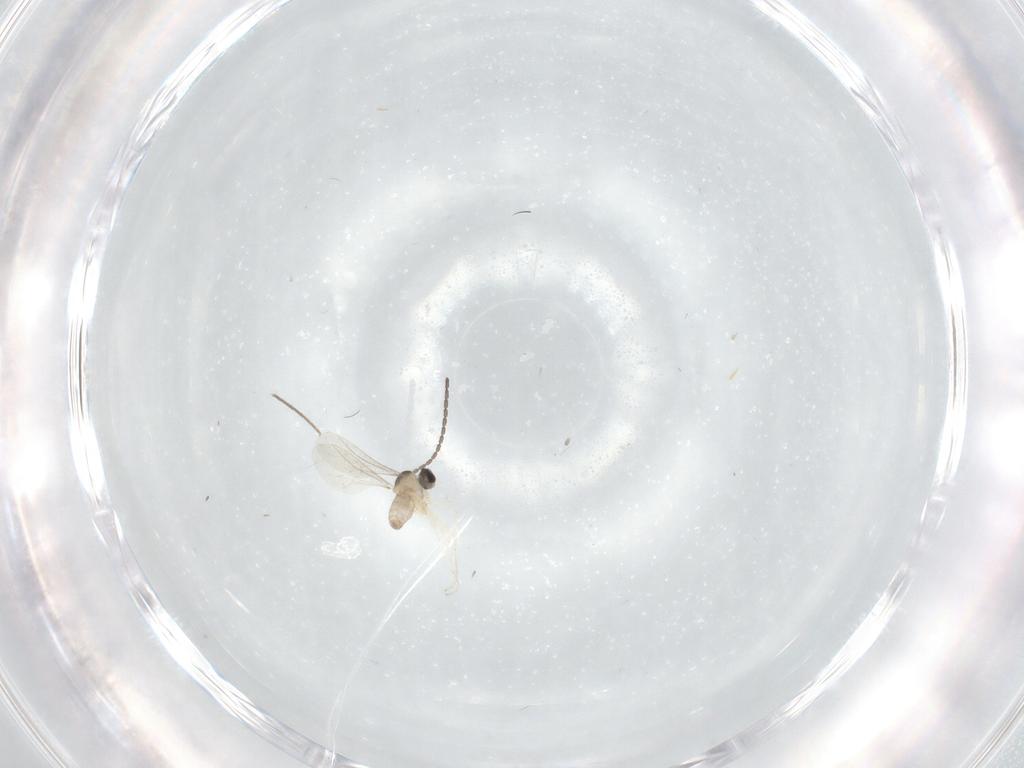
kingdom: Animalia
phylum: Arthropoda
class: Insecta
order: Diptera
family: Cecidomyiidae
